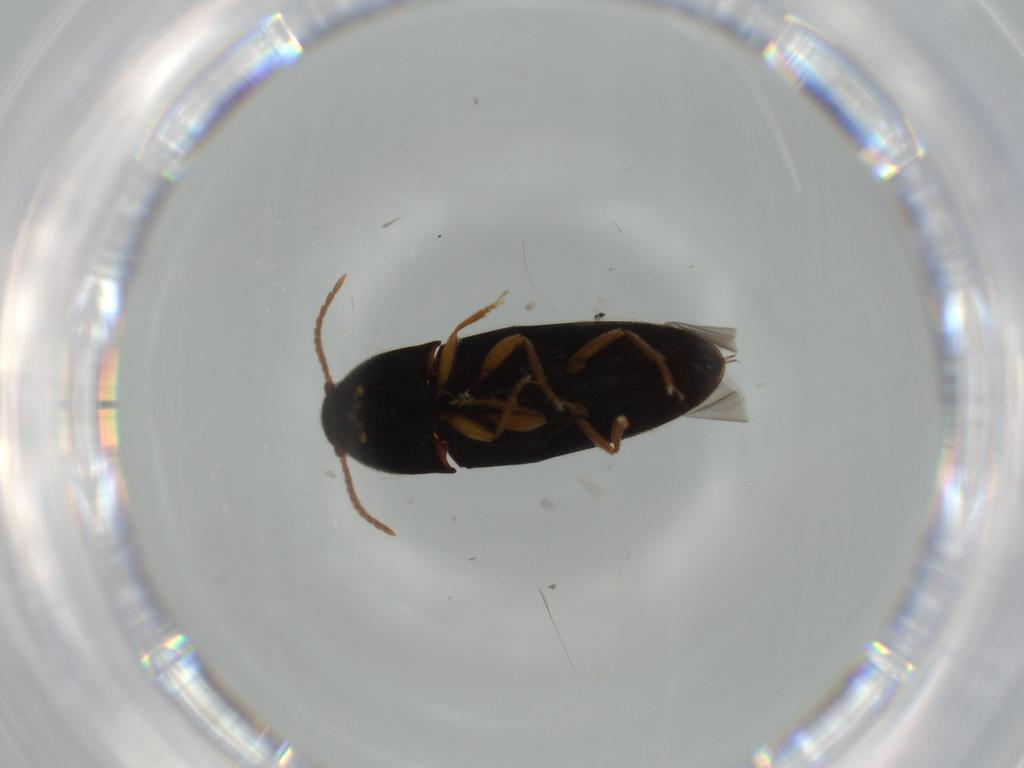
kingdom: Animalia
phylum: Arthropoda
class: Insecta
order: Coleoptera
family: Elateridae
